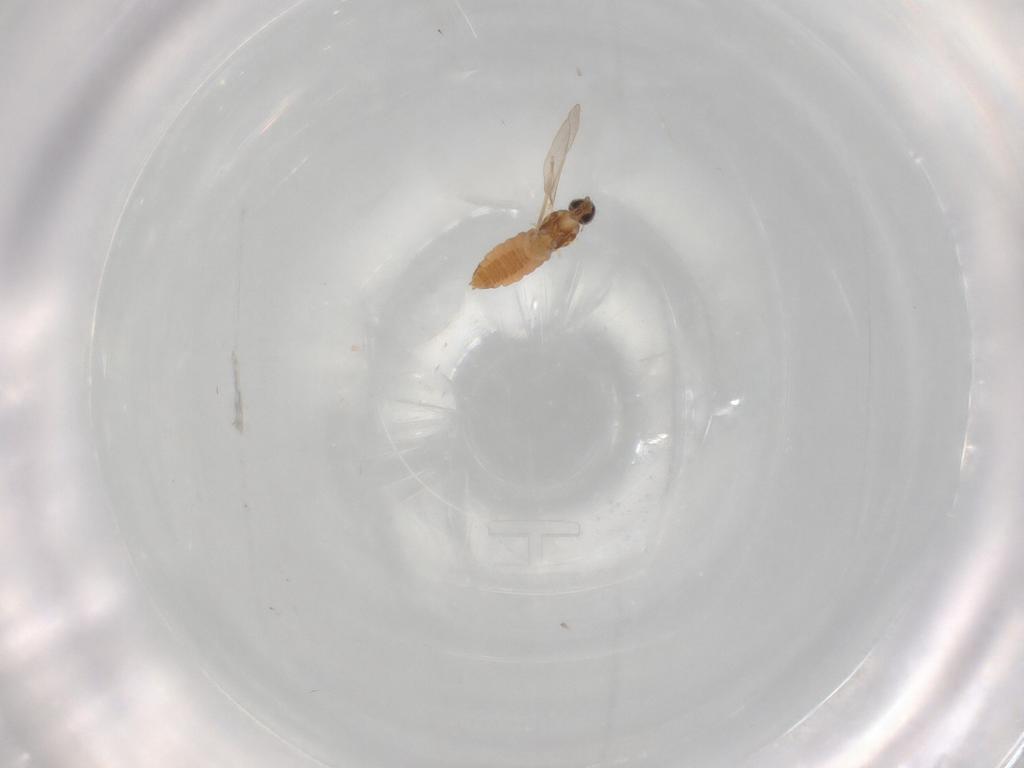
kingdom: Animalia
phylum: Arthropoda
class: Insecta
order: Diptera
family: Cecidomyiidae
